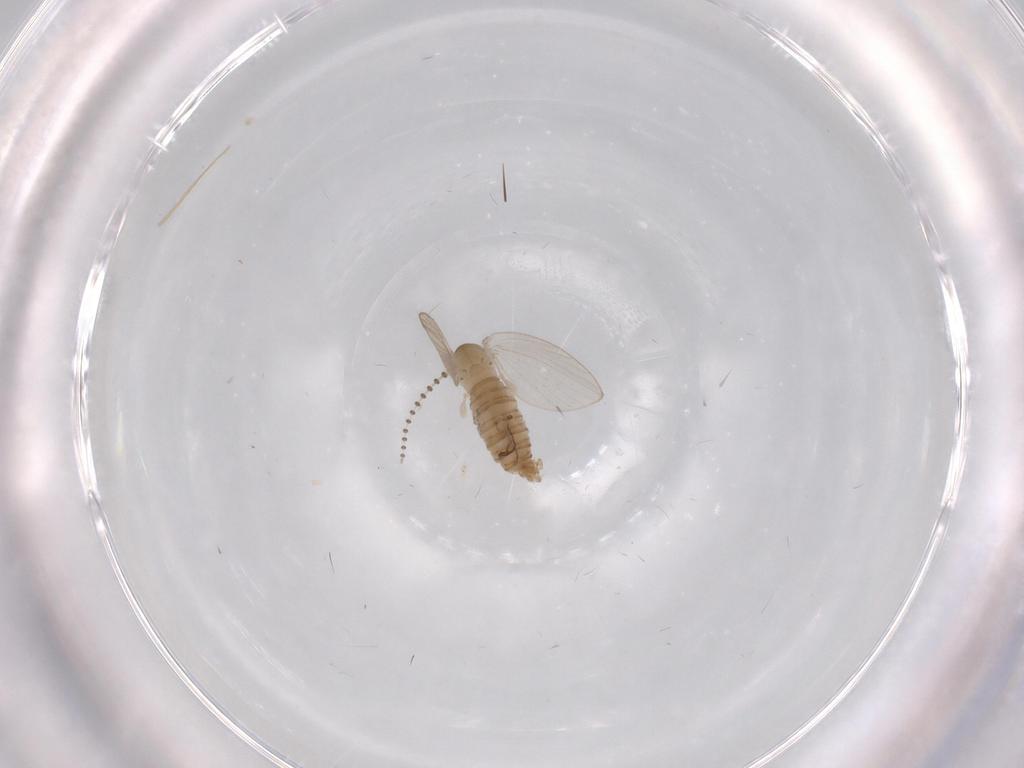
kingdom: Animalia
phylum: Arthropoda
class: Insecta
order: Diptera
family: Psychodidae
